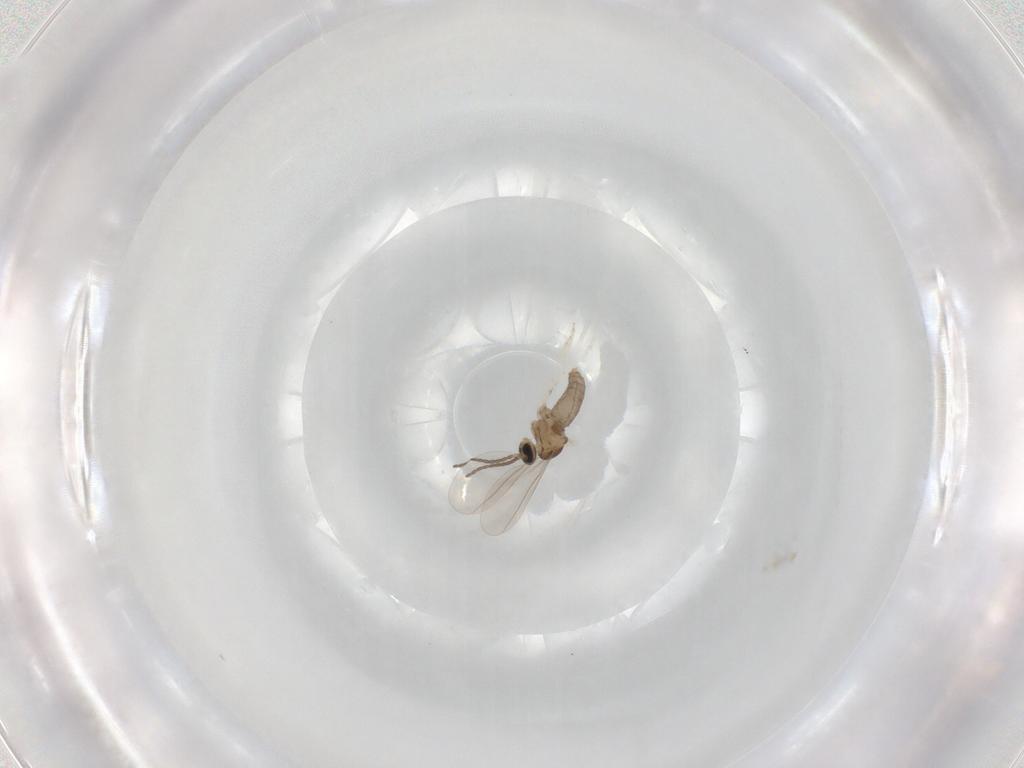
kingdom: Animalia
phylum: Arthropoda
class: Insecta
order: Diptera
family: Cecidomyiidae
